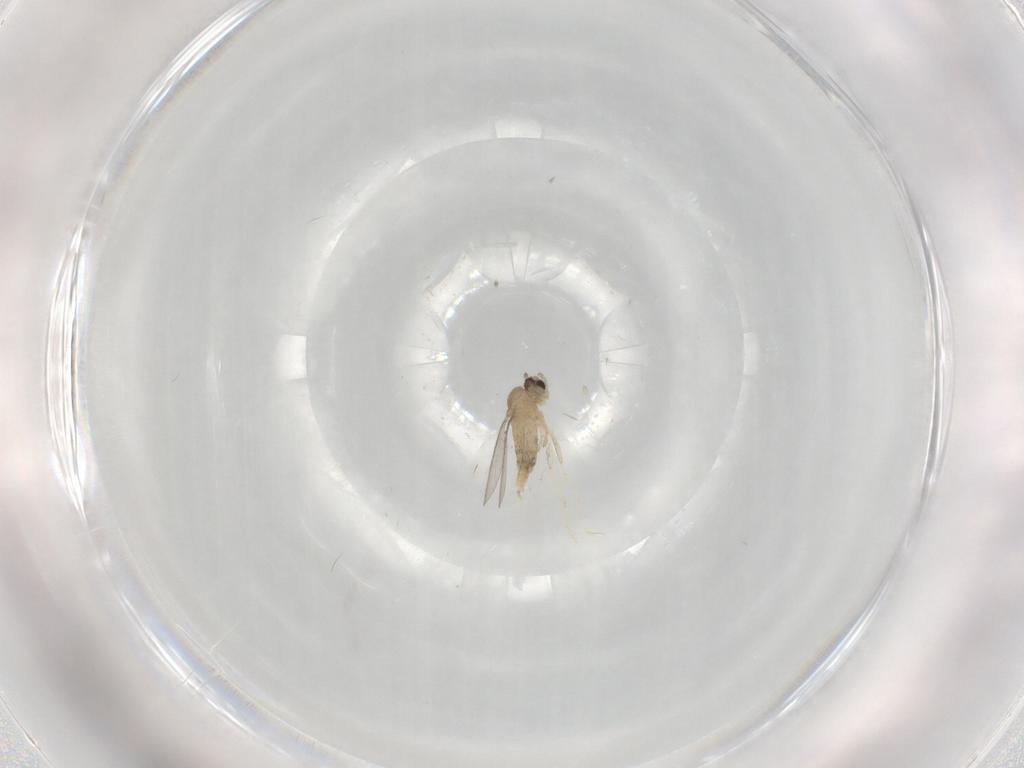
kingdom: Animalia
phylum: Arthropoda
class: Insecta
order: Diptera
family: Cecidomyiidae
